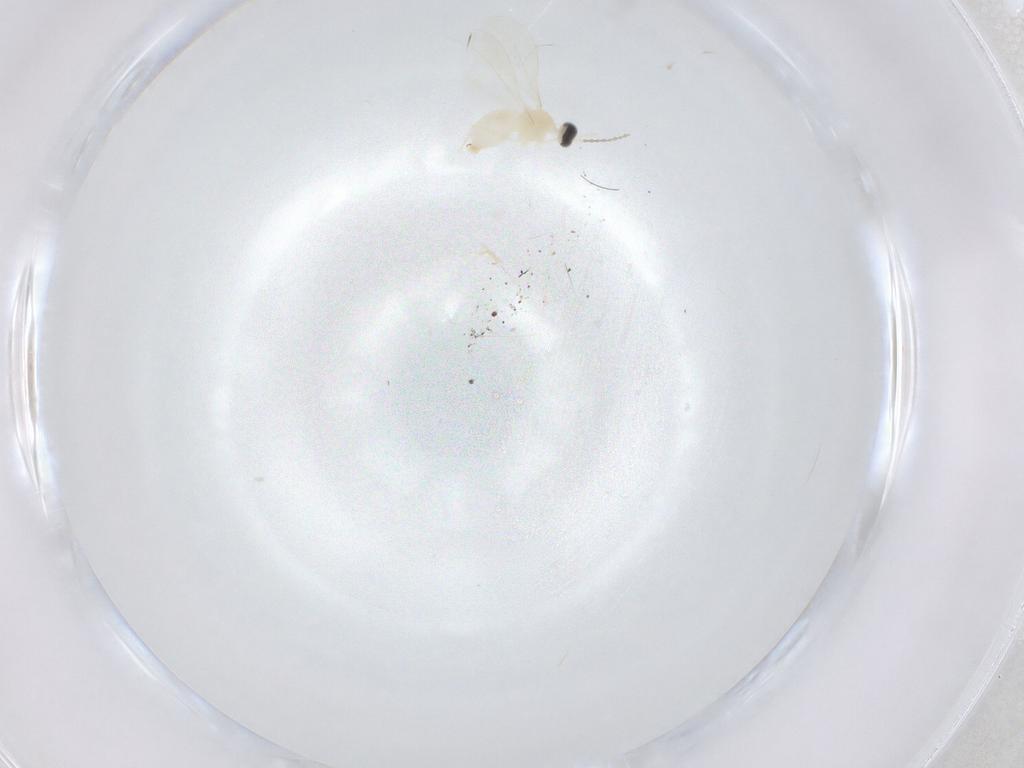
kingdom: Animalia
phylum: Arthropoda
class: Insecta
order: Diptera
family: Cecidomyiidae
